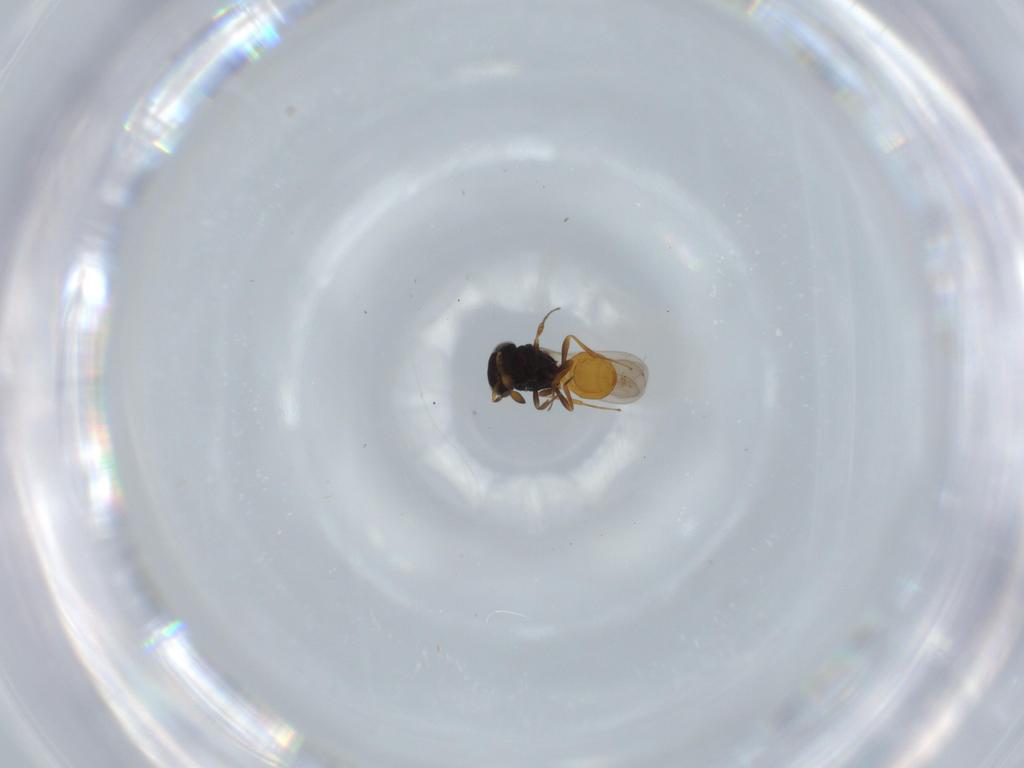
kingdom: Animalia
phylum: Arthropoda
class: Insecta
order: Hymenoptera
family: Scelionidae
